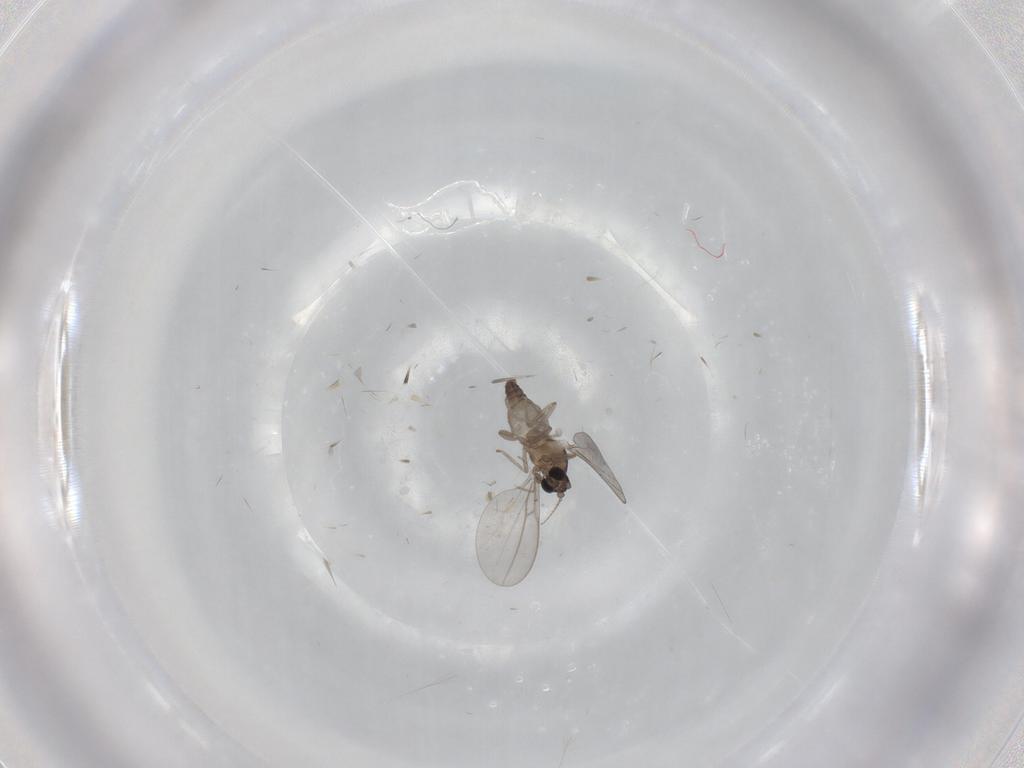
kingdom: Animalia
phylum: Arthropoda
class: Insecta
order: Diptera
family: Cecidomyiidae
